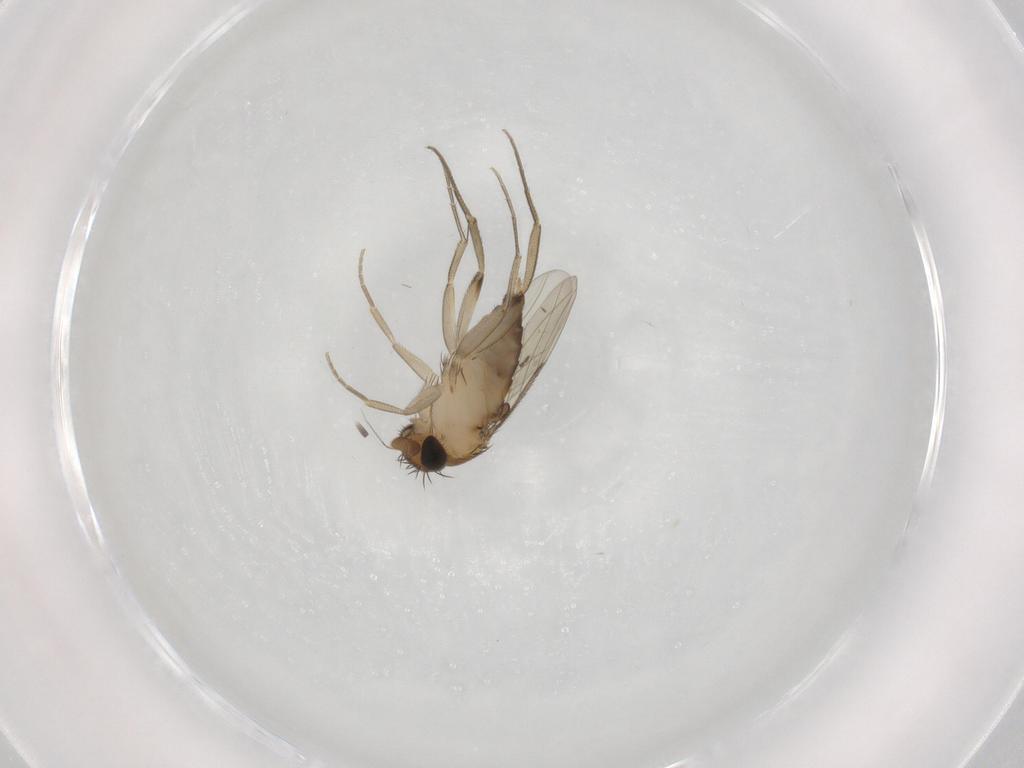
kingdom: Animalia
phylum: Arthropoda
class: Insecta
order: Diptera
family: Phoridae
